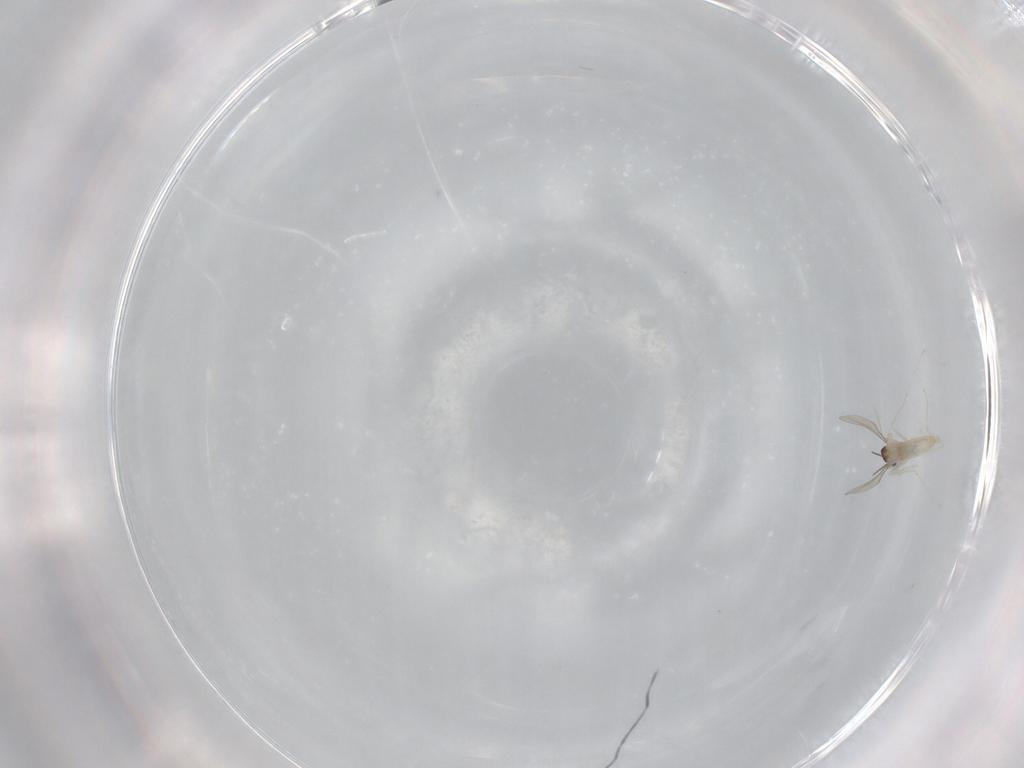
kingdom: Animalia
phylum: Arthropoda
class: Insecta
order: Diptera
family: Cecidomyiidae
